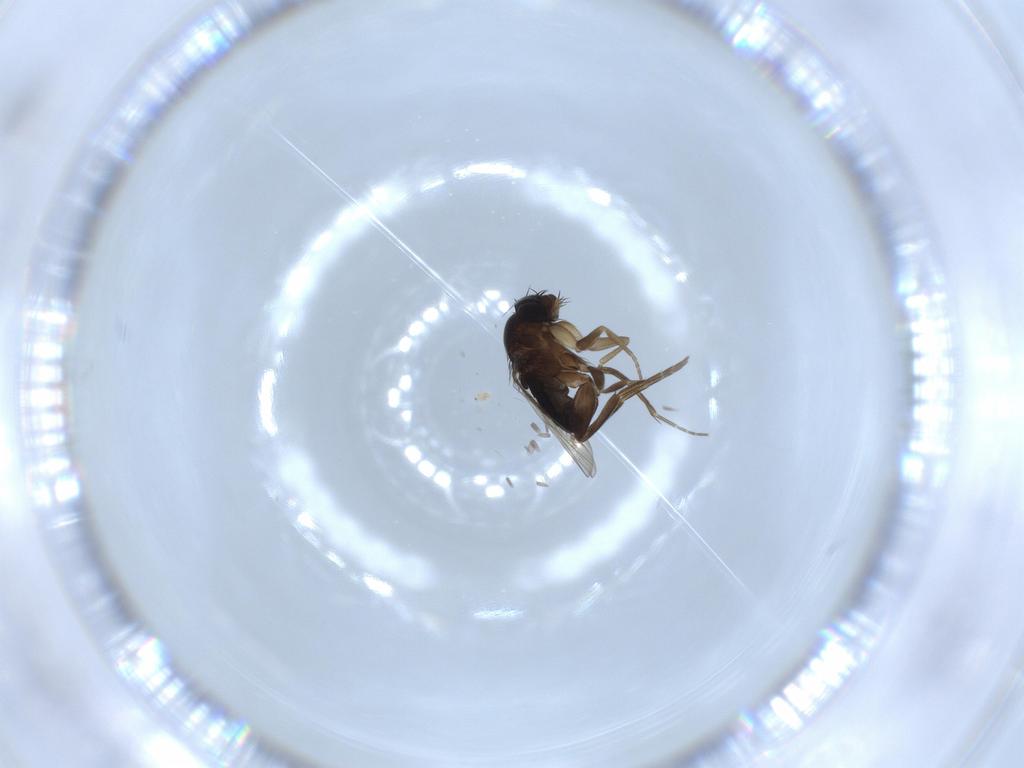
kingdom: Animalia
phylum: Arthropoda
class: Insecta
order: Diptera
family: Phoridae
